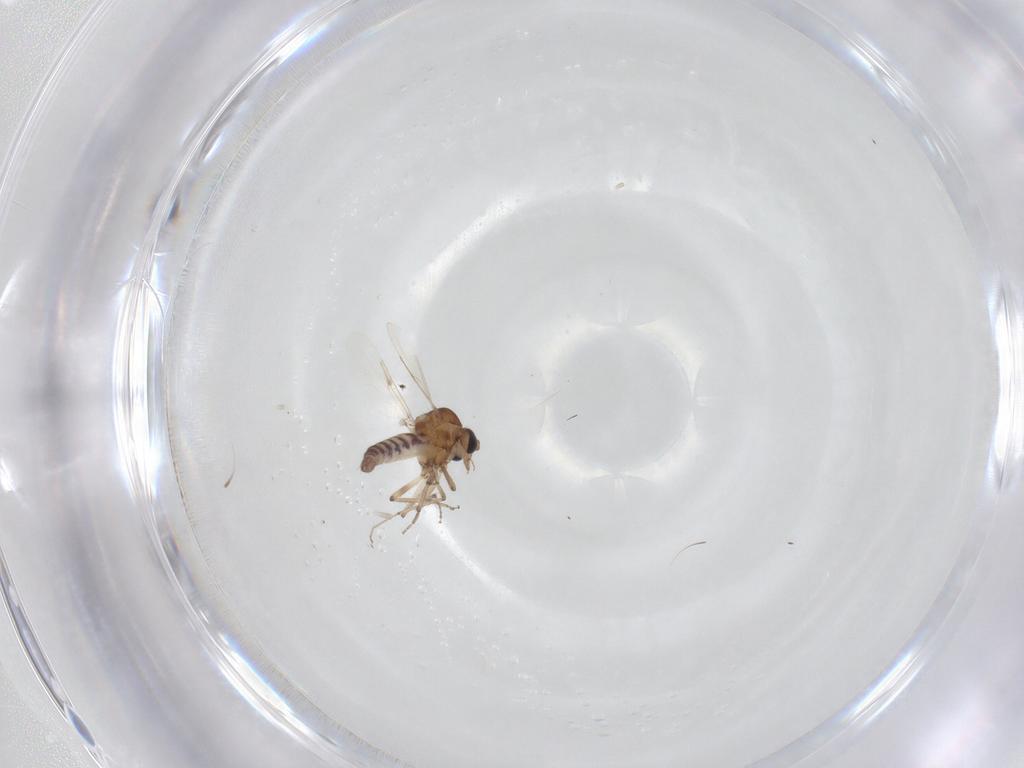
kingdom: Animalia
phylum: Arthropoda
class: Insecta
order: Diptera
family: Ceratopogonidae
